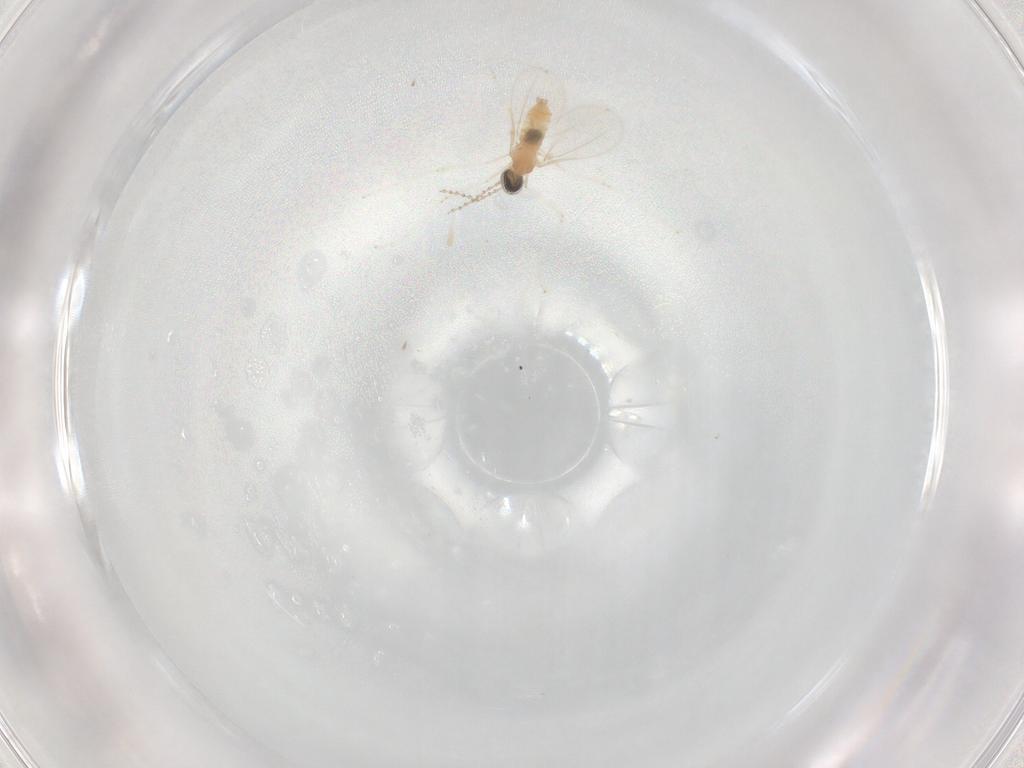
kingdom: Animalia
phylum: Arthropoda
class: Insecta
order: Diptera
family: Cecidomyiidae
